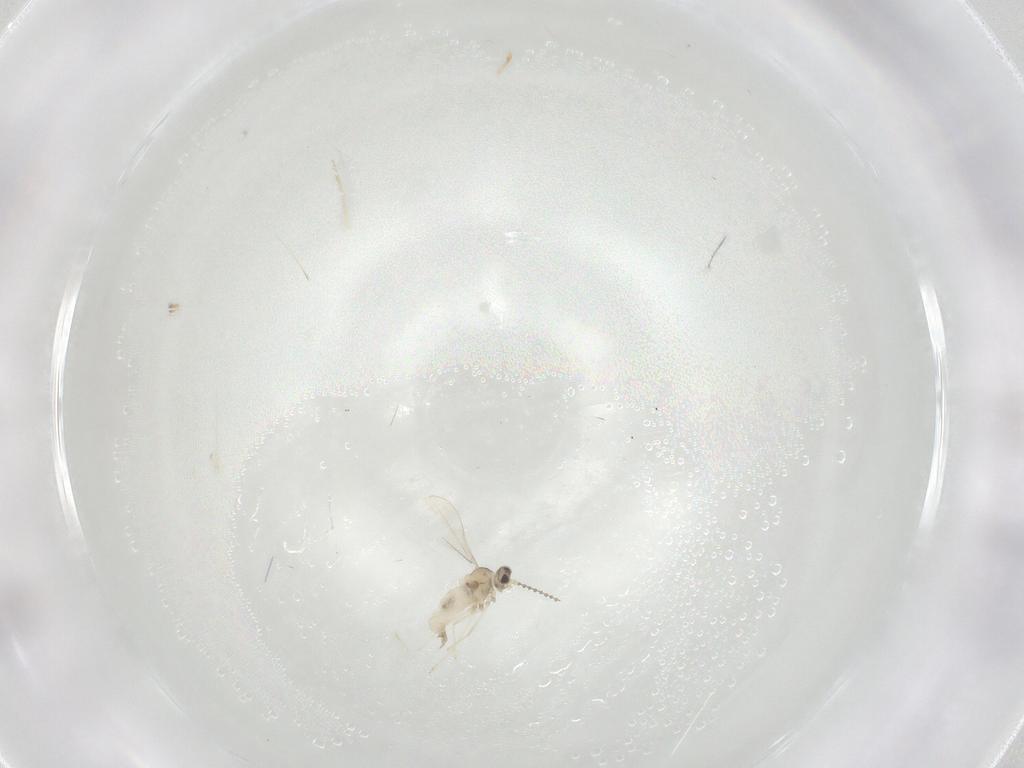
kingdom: Animalia
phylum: Arthropoda
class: Insecta
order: Diptera
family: Cecidomyiidae
